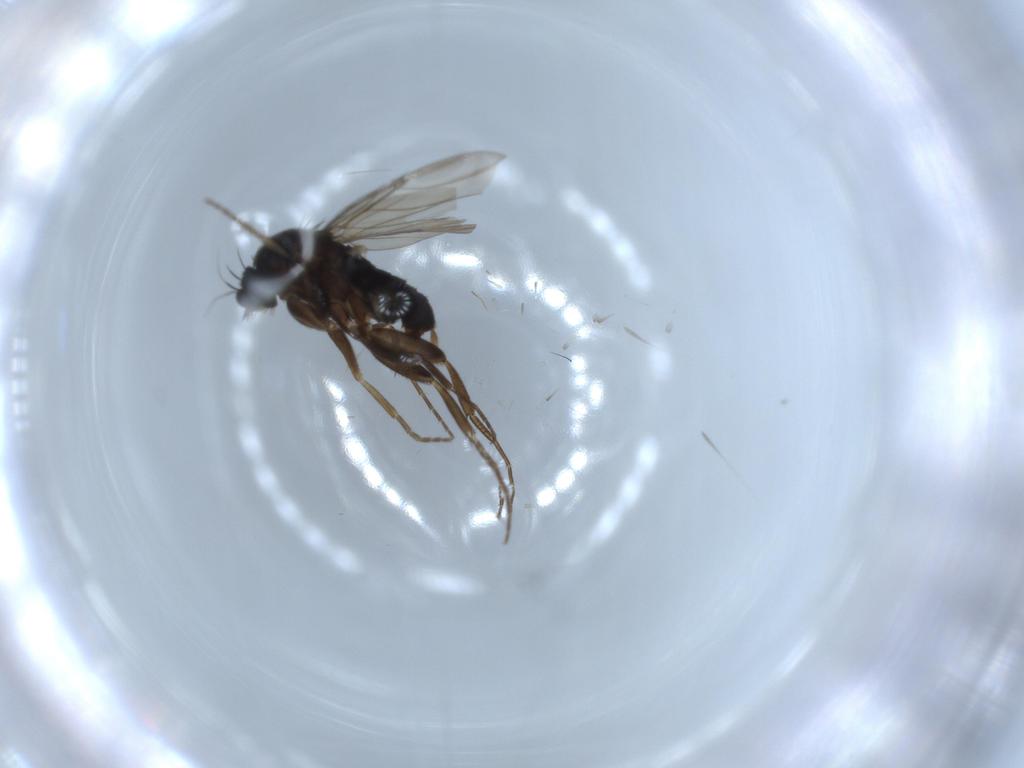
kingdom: Animalia
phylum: Arthropoda
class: Insecta
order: Diptera
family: Phoridae
